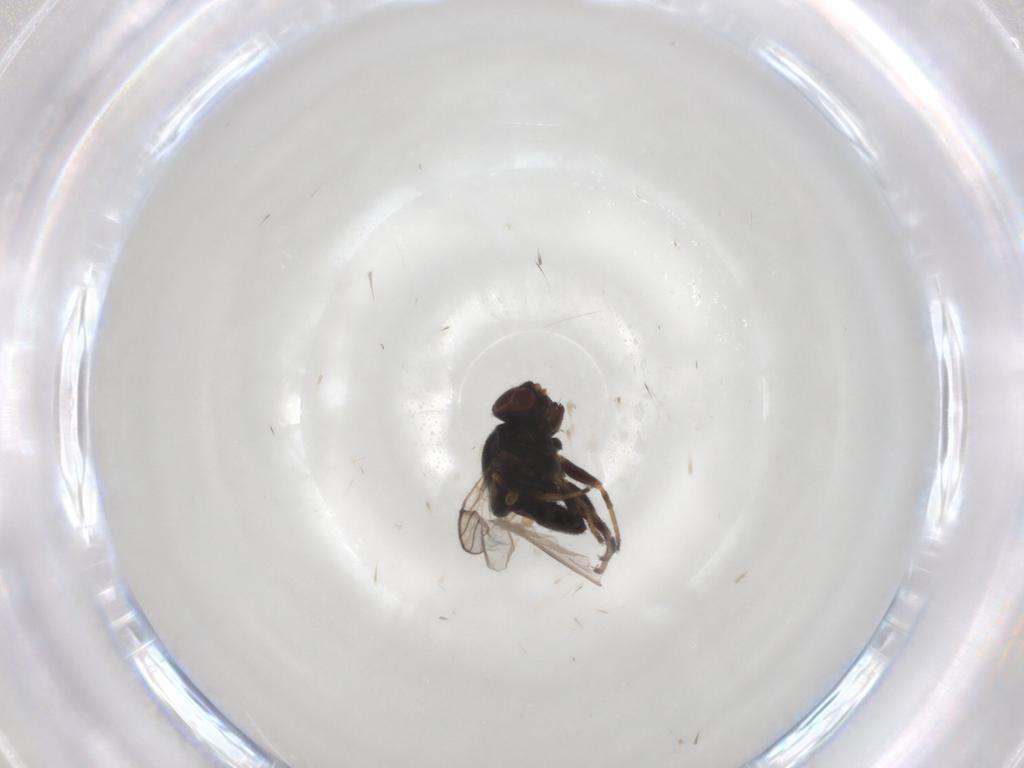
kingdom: Animalia
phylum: Arthropoda
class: Insecta
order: Diptera
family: Chloropidae
